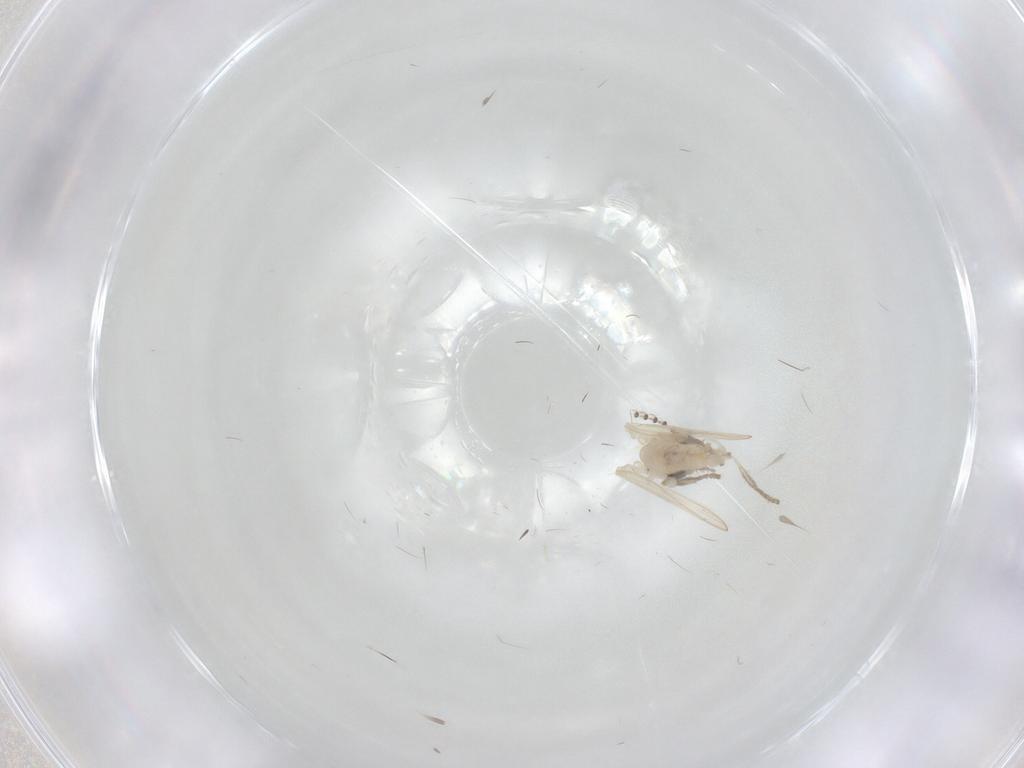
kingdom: Animalia
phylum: Arthropoda
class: Insecta
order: Diptera
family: Psychodidae
